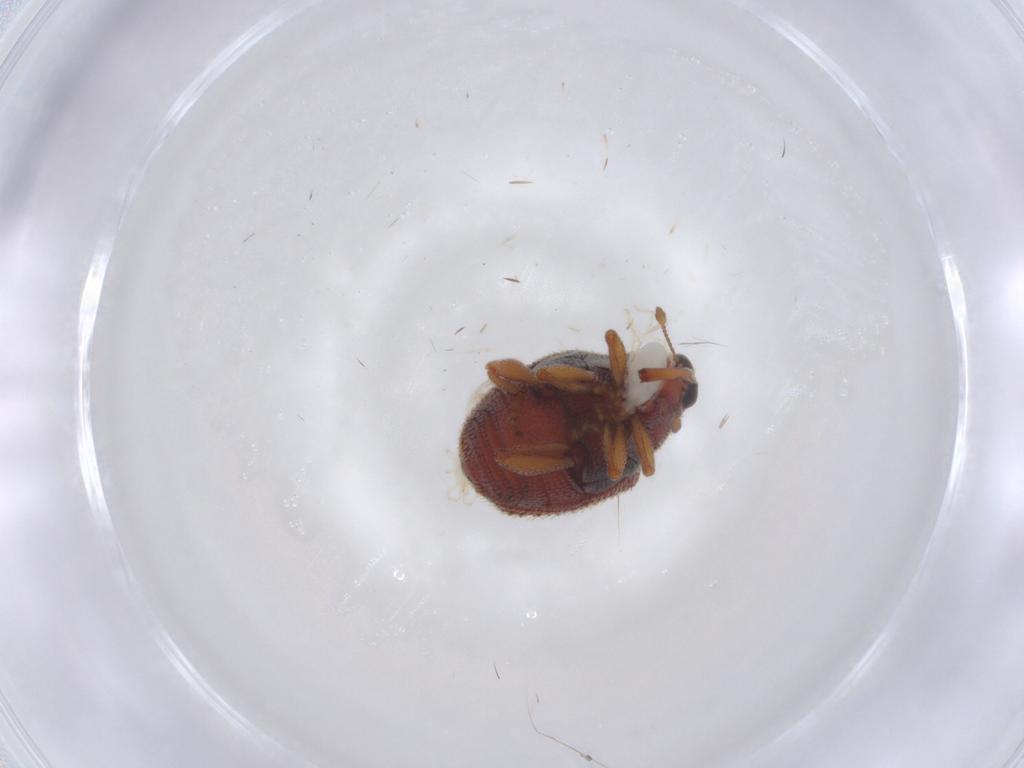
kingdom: Animalia
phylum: Arthropoda
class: Insecta
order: Coleoptera
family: Curculionidae
